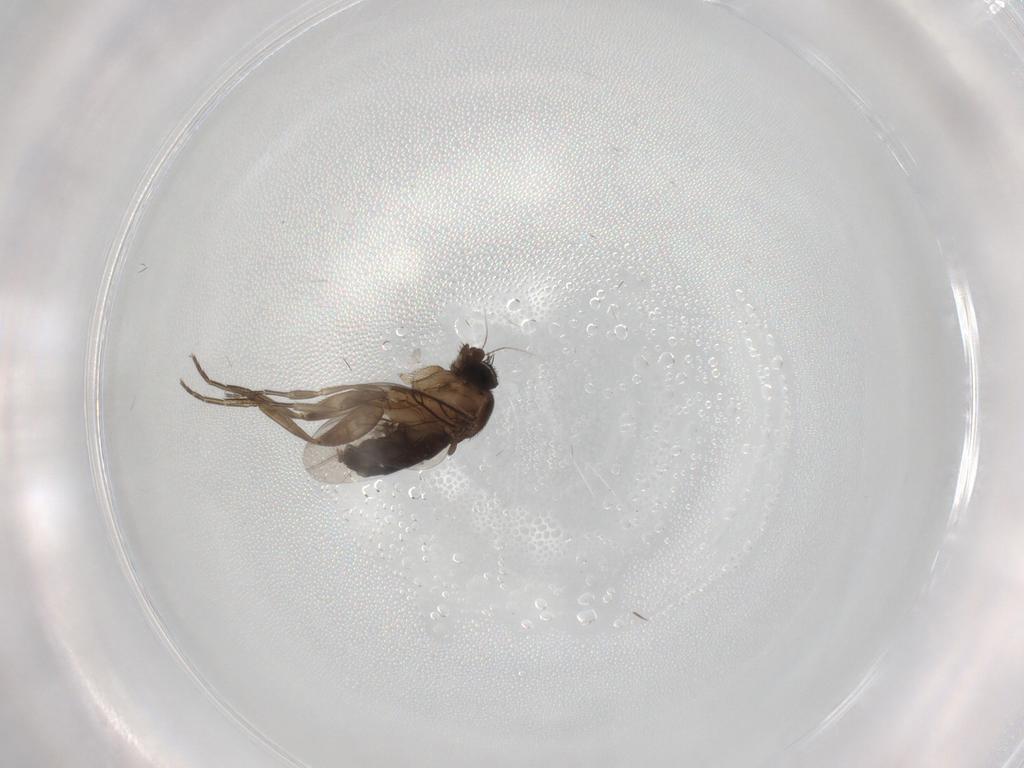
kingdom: Animalia
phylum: Arthropoda
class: Insecta
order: Diptera
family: Phoridae
